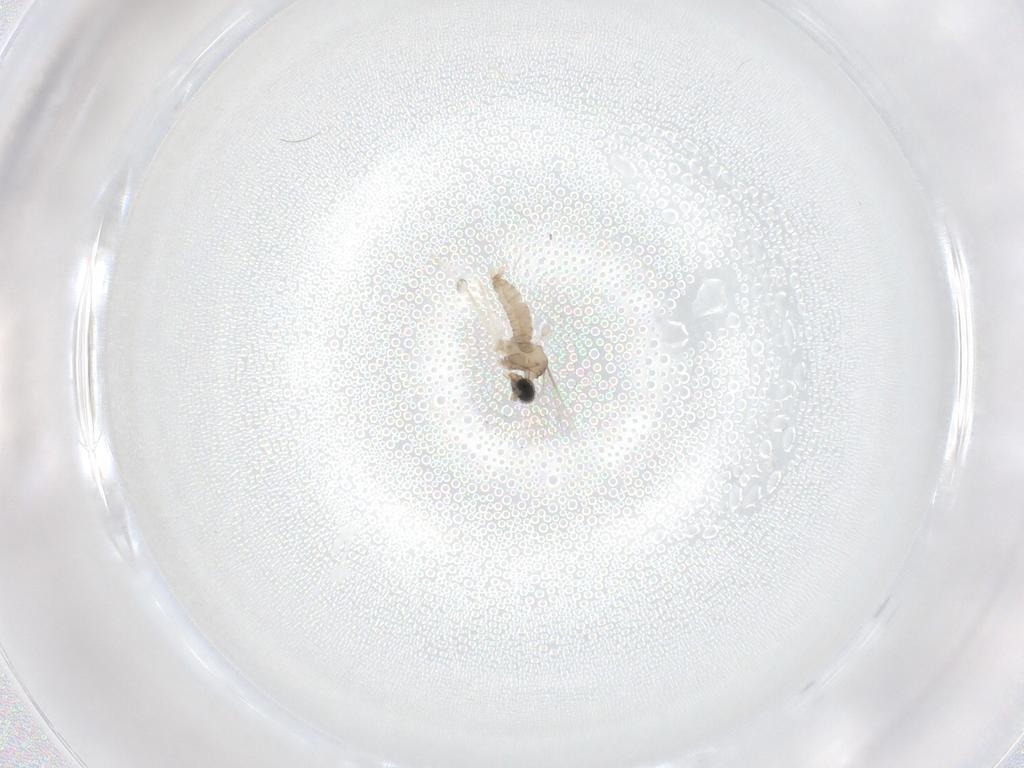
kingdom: Animalia
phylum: Arthropoda
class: Insecta
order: Diptera
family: Cecidomyiidae
